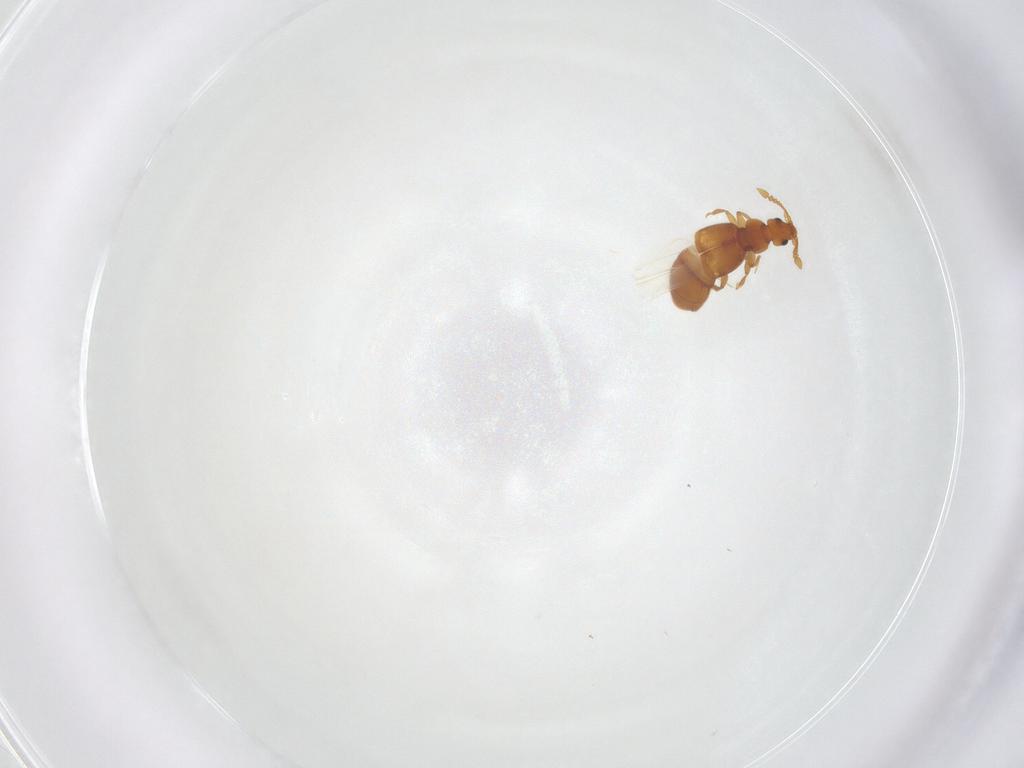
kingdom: Animalia
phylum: Arthropoda
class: Insecta
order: Coleoptera
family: Staphylinidae
